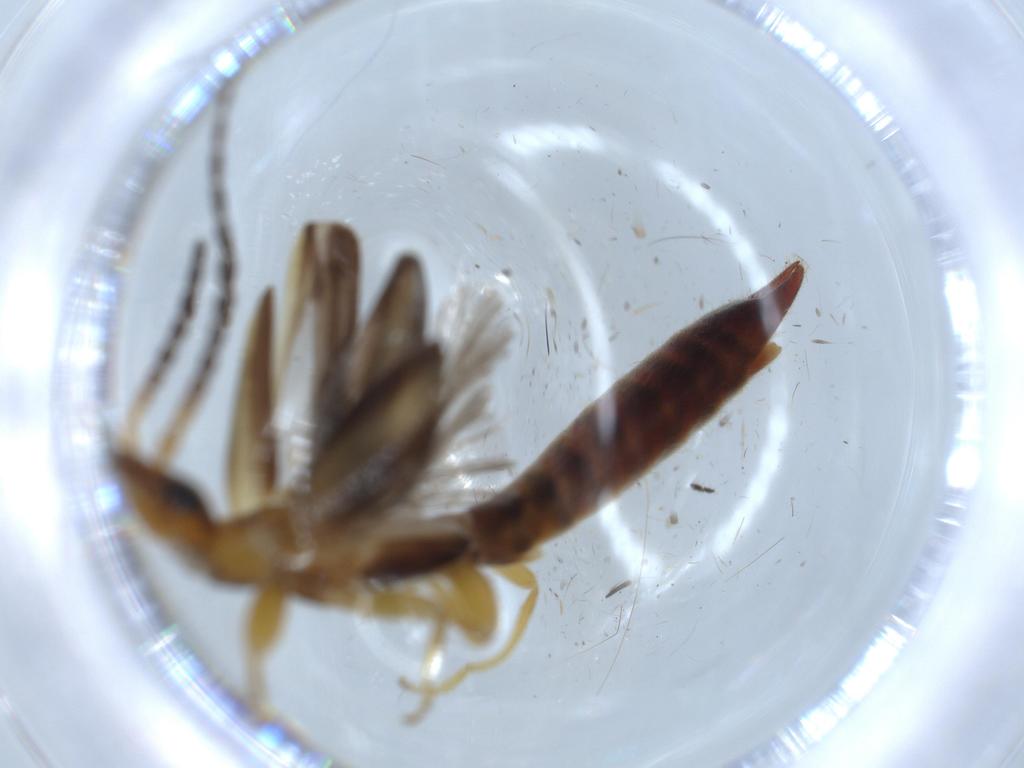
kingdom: Animalia
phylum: Arthropoda
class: Insecta
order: Dermaptera
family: Forficulidae
